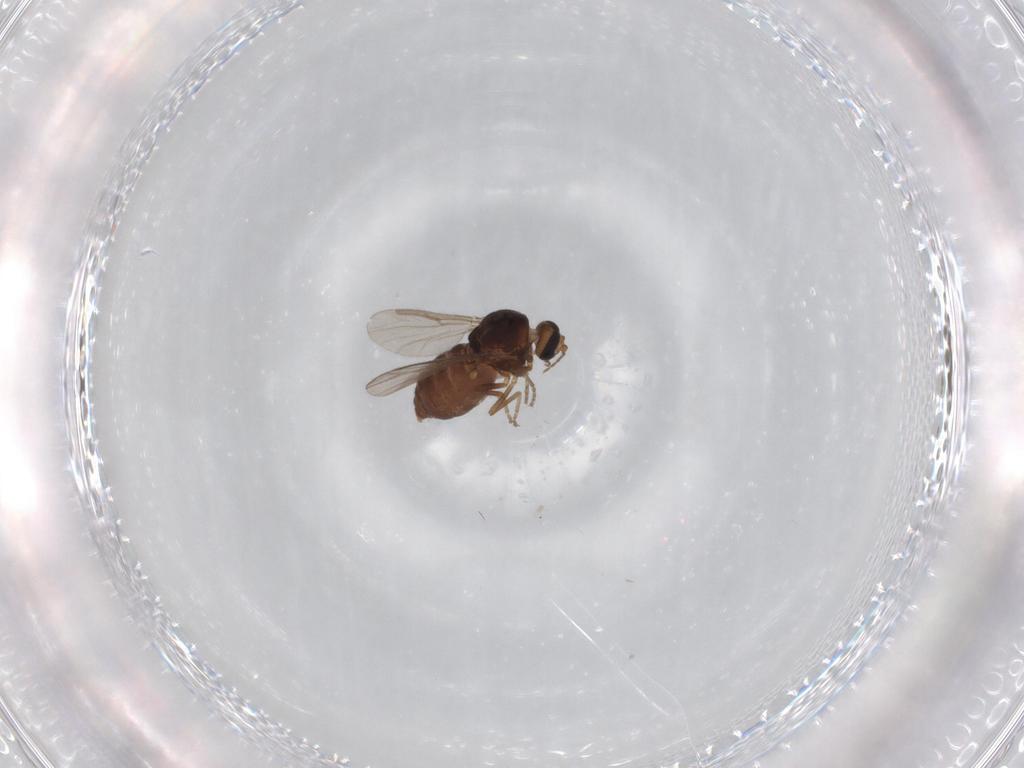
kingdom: Animalia
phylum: Arthropoda
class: Insecta
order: Diptera
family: Ceratopogonidae
